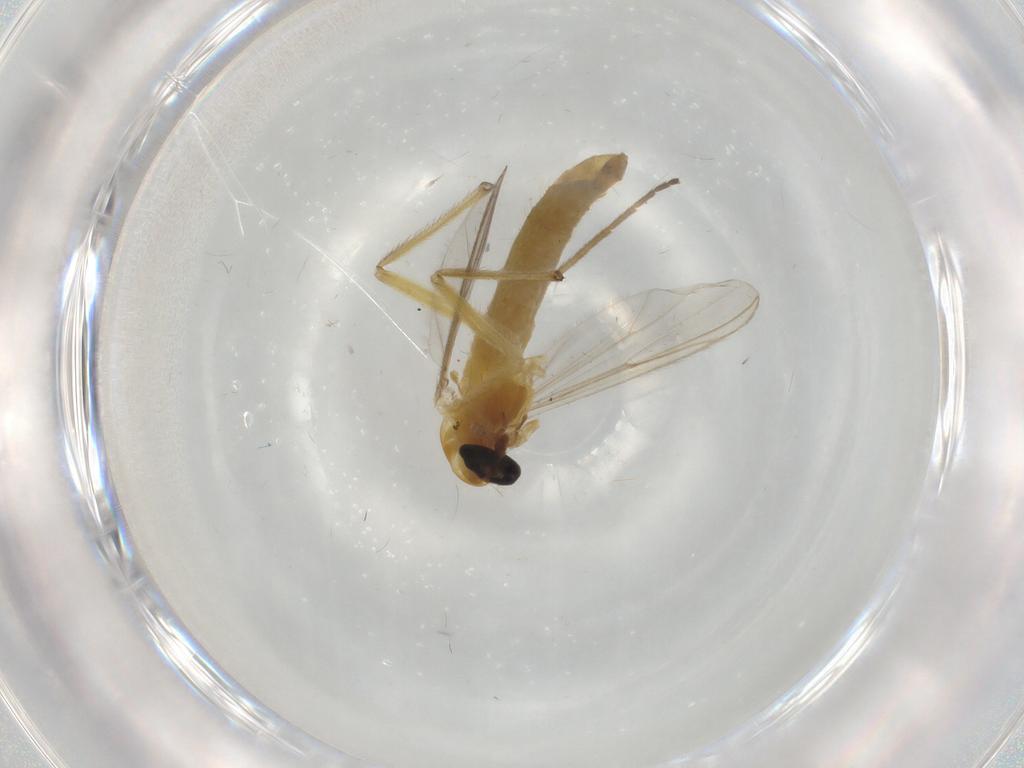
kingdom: Animalia
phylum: Arthropoda
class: Insecta
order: Diptera
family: Chironomidae
